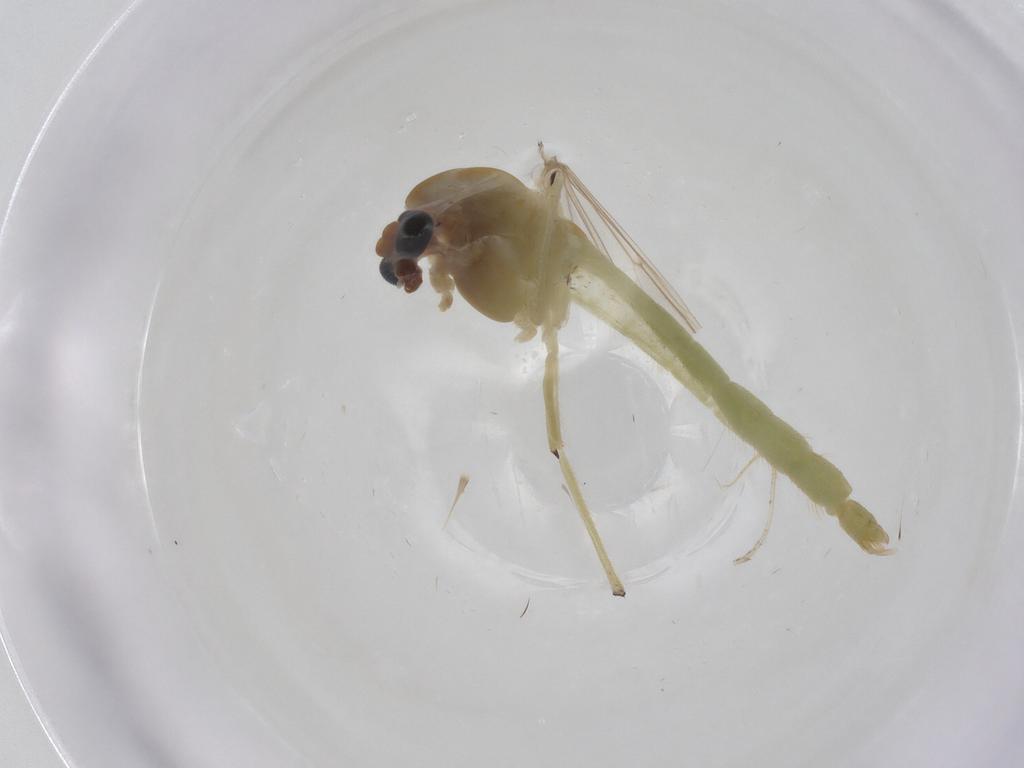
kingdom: Animalia
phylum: Arthropoda
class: Insecta
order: Diptera
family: Chironomidae
